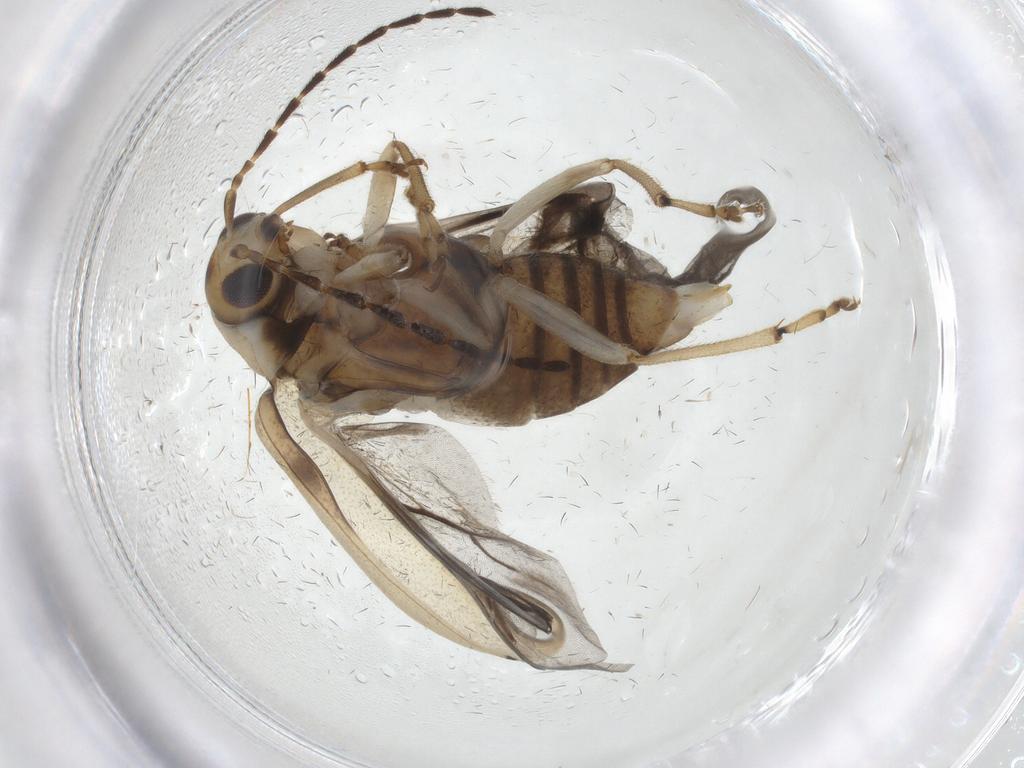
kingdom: Animalia
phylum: Arthropoda
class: Insecta
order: Coleoptera
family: Chrysomelidae
